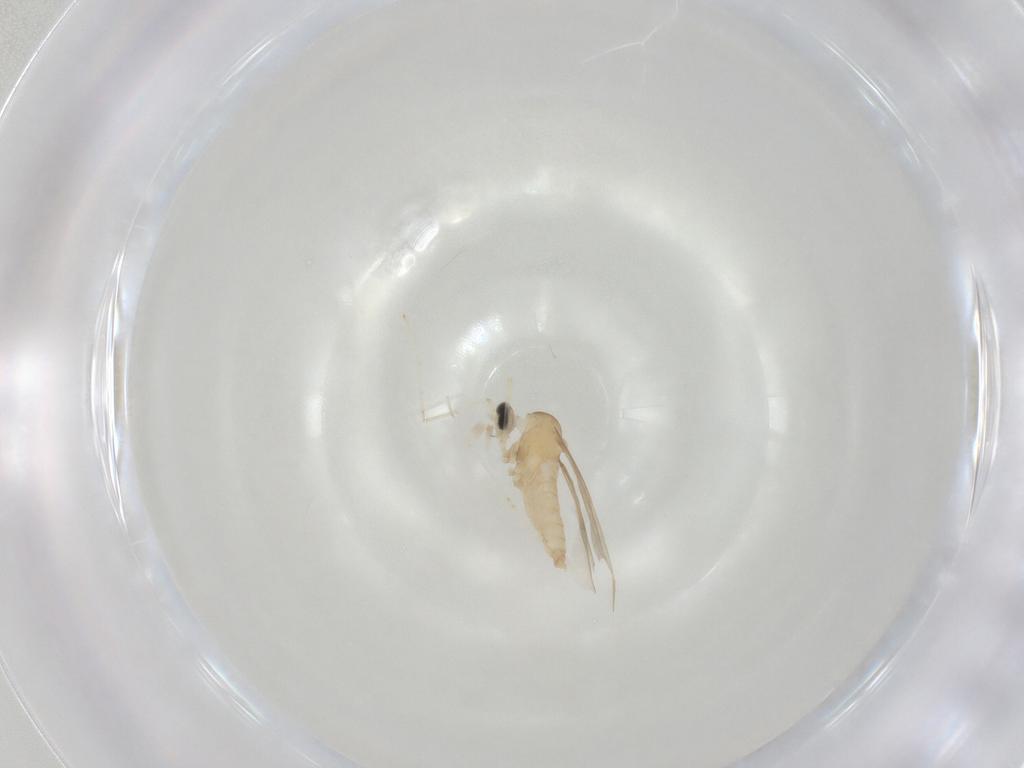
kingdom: Animalia
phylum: Arthropoda
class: Insecta
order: Diptera
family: Cecidomyiidae
